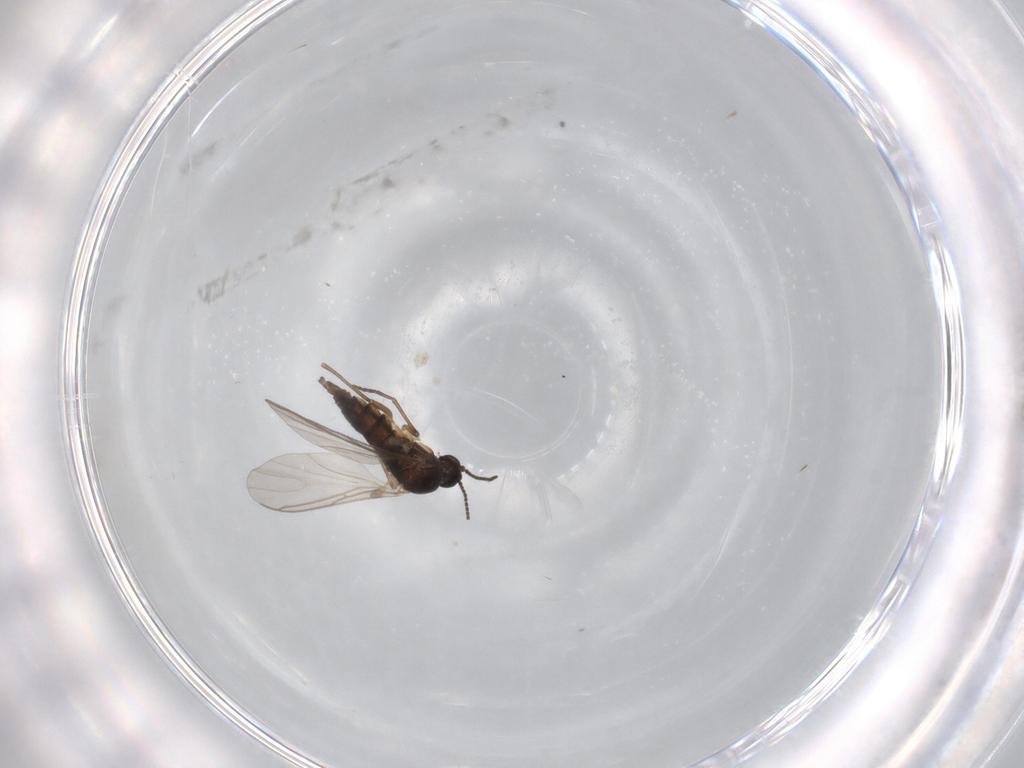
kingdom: Animalia
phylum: Arthropoda
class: Insecta
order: Diptera
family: Sciaridae
